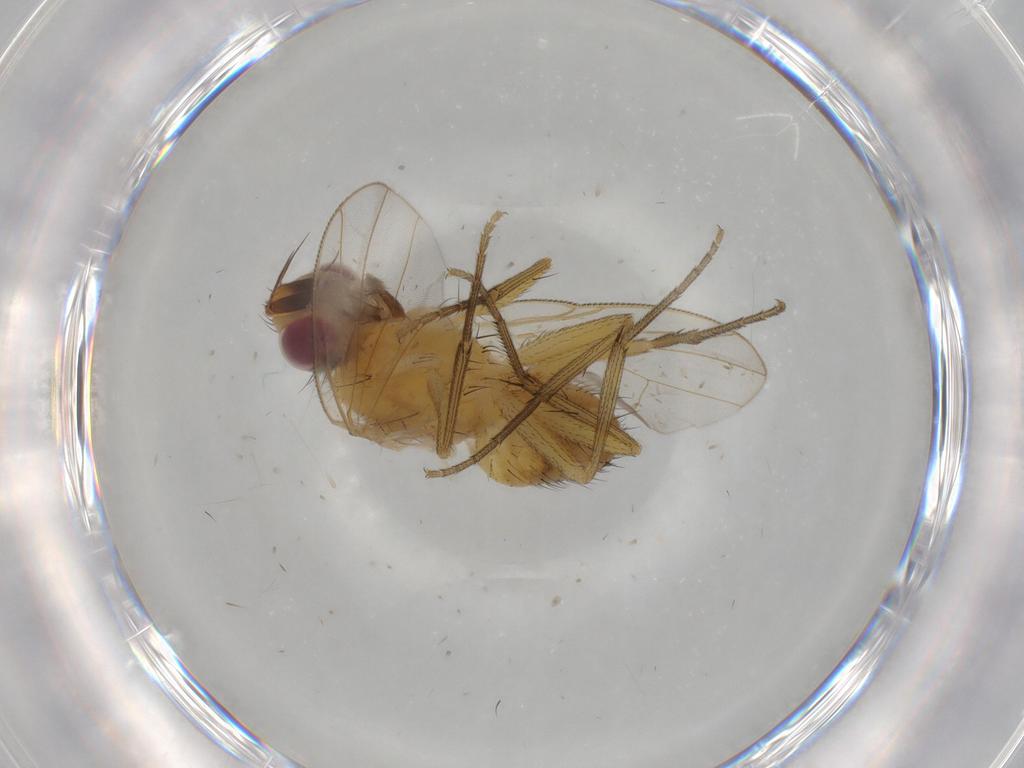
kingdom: Animalia
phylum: Arthropoda
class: Insecta
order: Diptera
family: Muscidae
